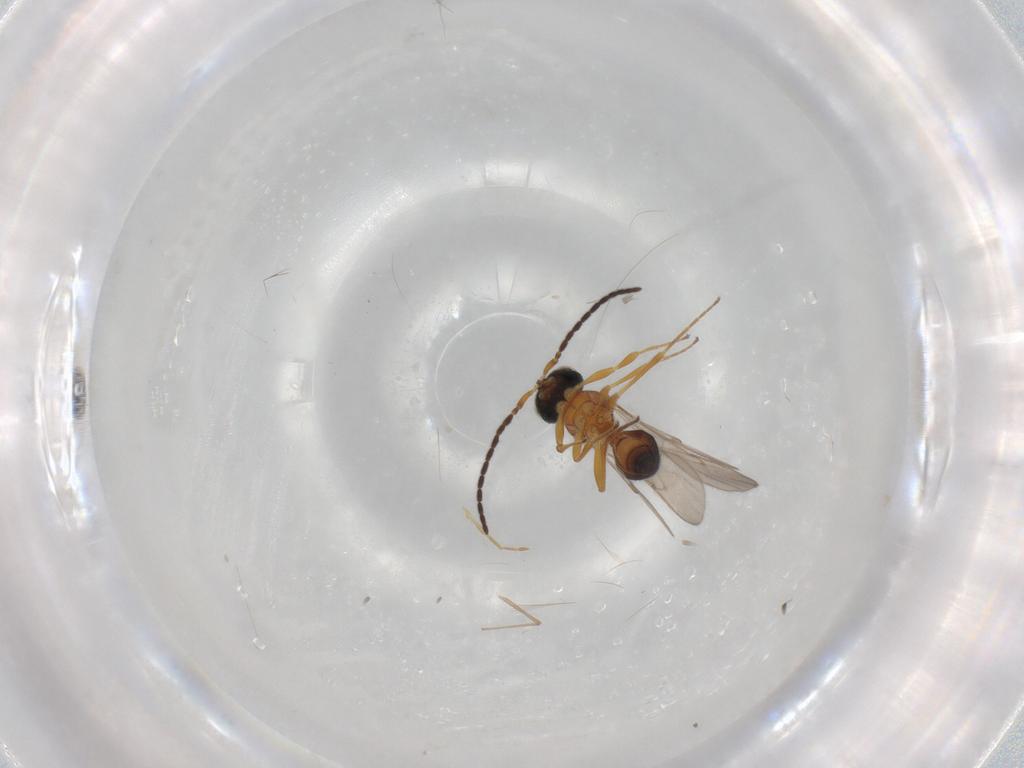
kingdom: Animalia
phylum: Arthropoda
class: Insecta
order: Hymenoptera
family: Formicidae
